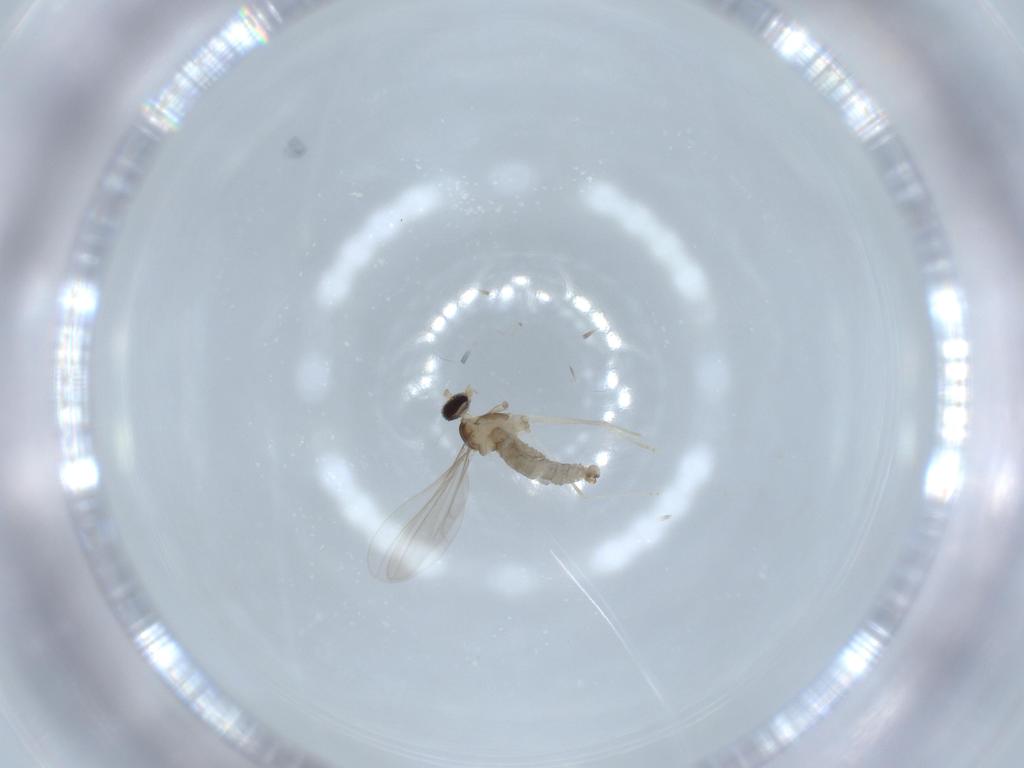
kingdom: Animalia
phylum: Arthropoda
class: Insecta
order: Diptera
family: Cecidomyiidae
